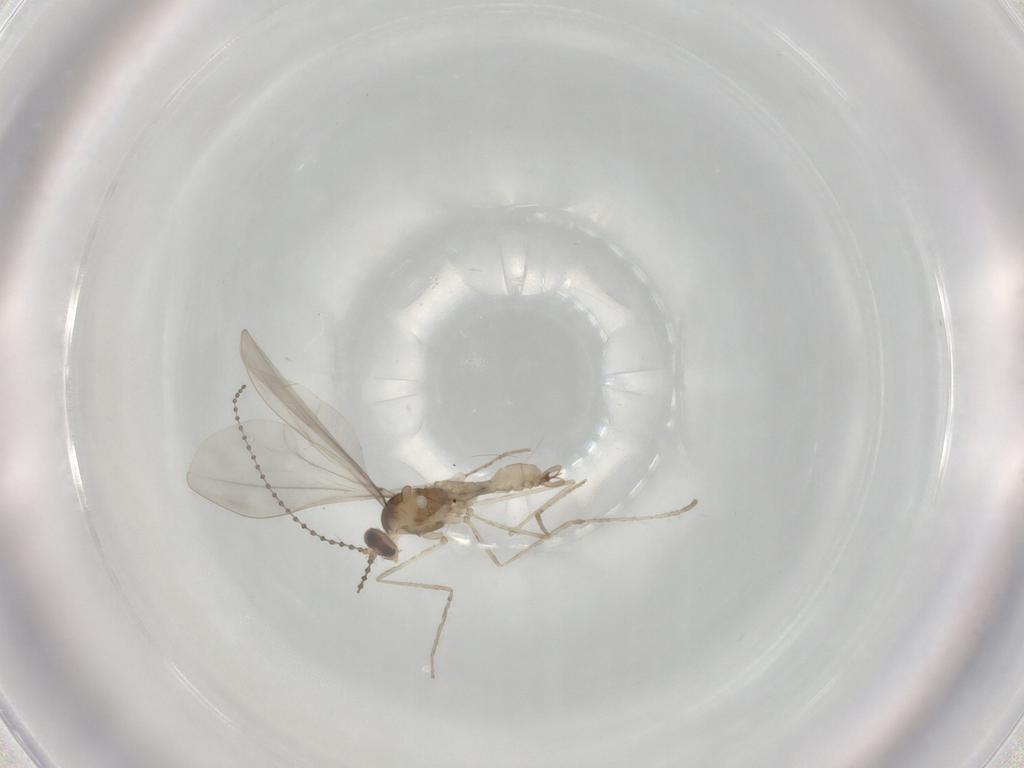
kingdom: Animalia
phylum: Arthropoda
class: Insecta
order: Diptera
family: Cecidomyiidae
